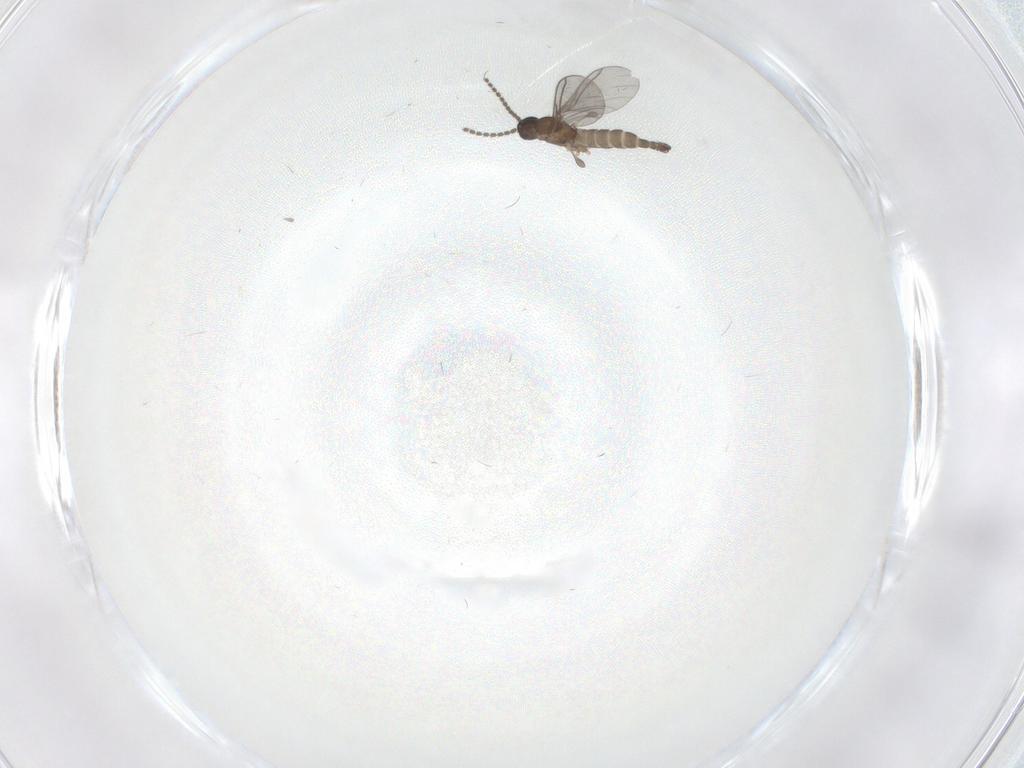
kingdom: Animalia
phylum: Arthropoda
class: Insecta
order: Diptera
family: Sciaridae
